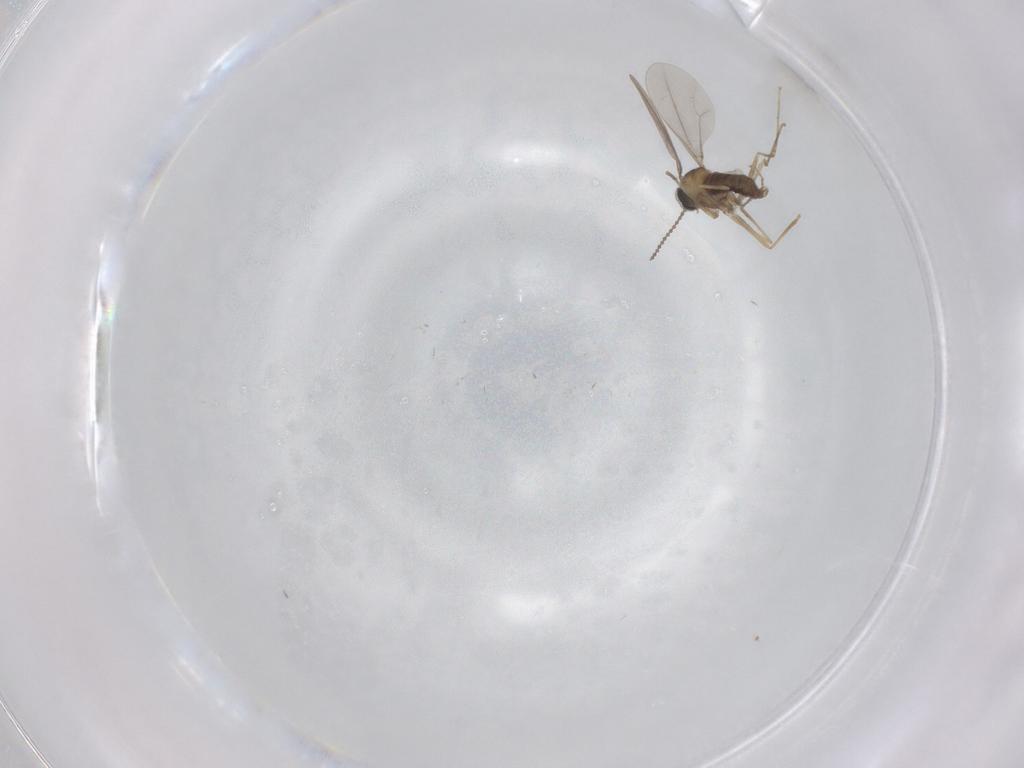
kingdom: Animalia
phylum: Arthropoda
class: Insecta
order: Diptera
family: Cecidomyiidae
